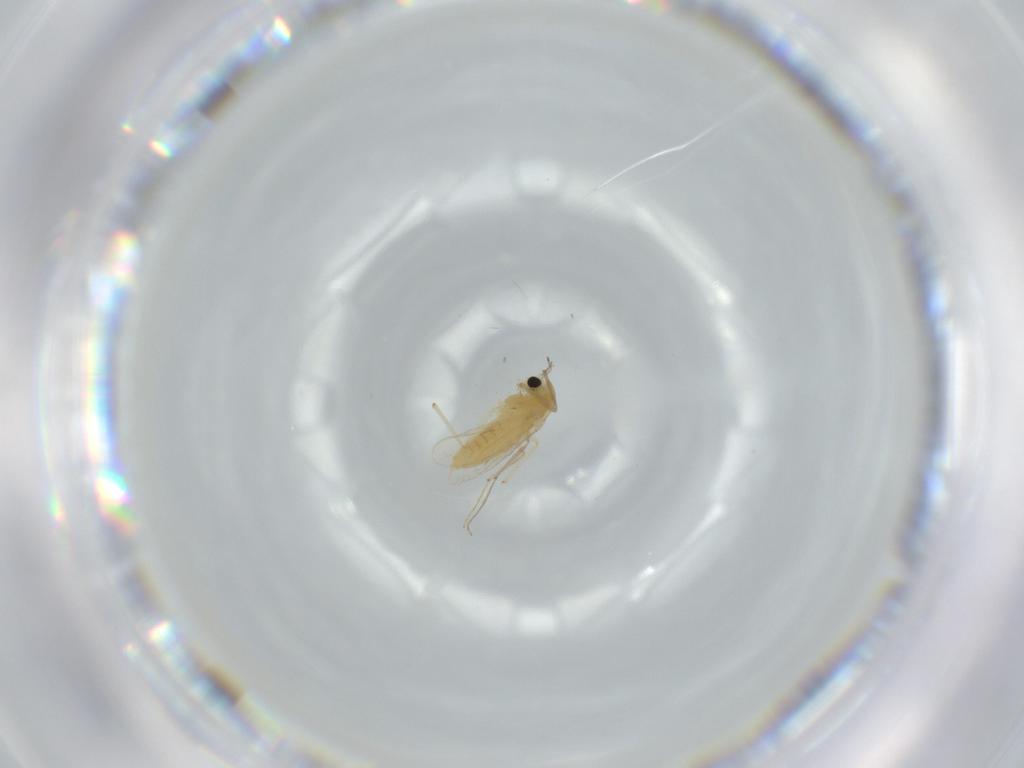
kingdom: Animalia
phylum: Arthropoda
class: Insecta
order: Diptera
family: Chironomidae
